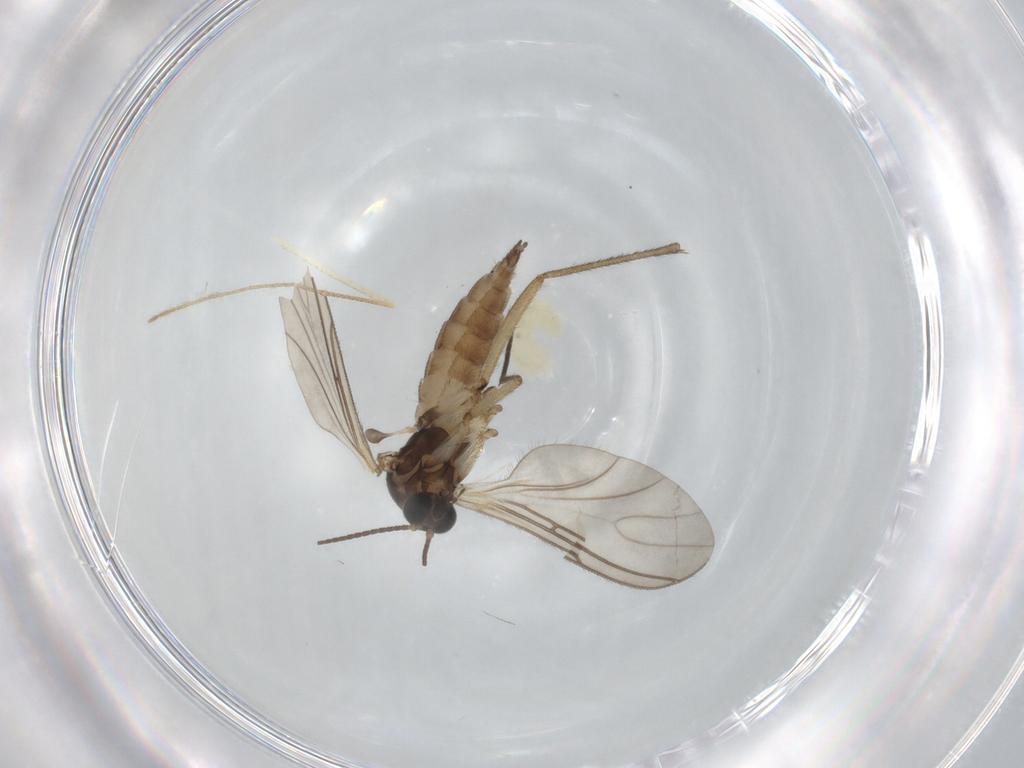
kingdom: Animalia
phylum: Arthropoda
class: Insecta
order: Diptera
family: Sciaridae
